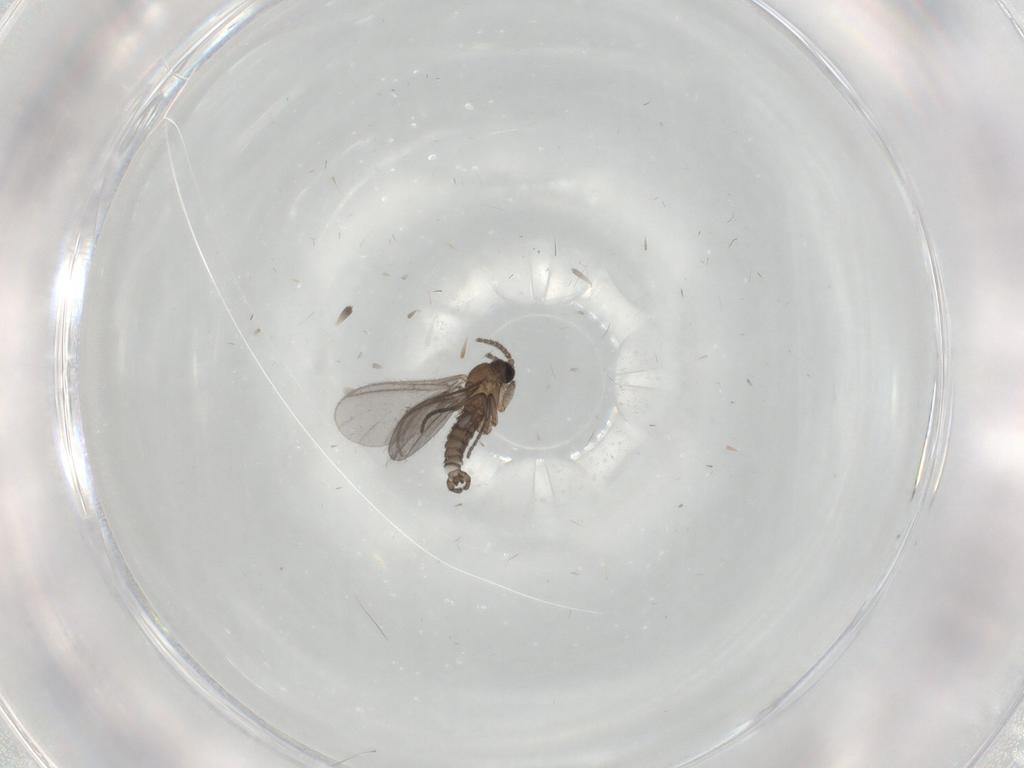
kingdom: Animalia
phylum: Arthropoda
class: Insecta
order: Diptera
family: Sciaridae
